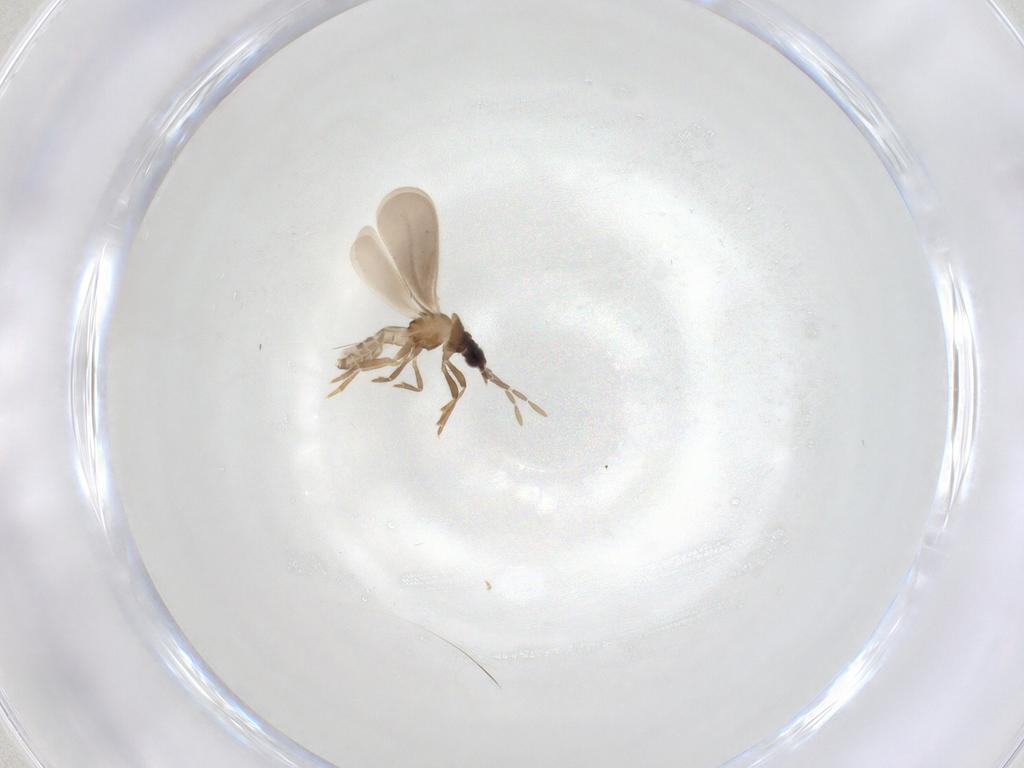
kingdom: Animalia
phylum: Arthropoda
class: Insecta
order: Hemiptera
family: Enicocephalidae
